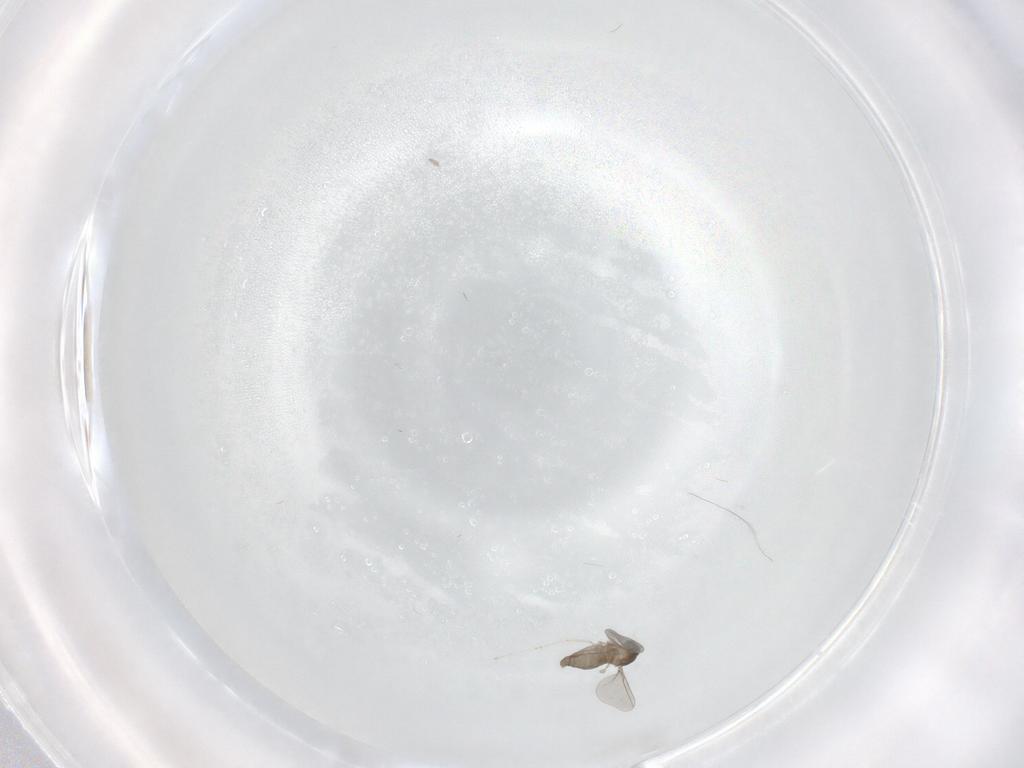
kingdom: Animalia
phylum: Arthropoda
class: Insecta
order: Diptera
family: Cecidomyiidae
